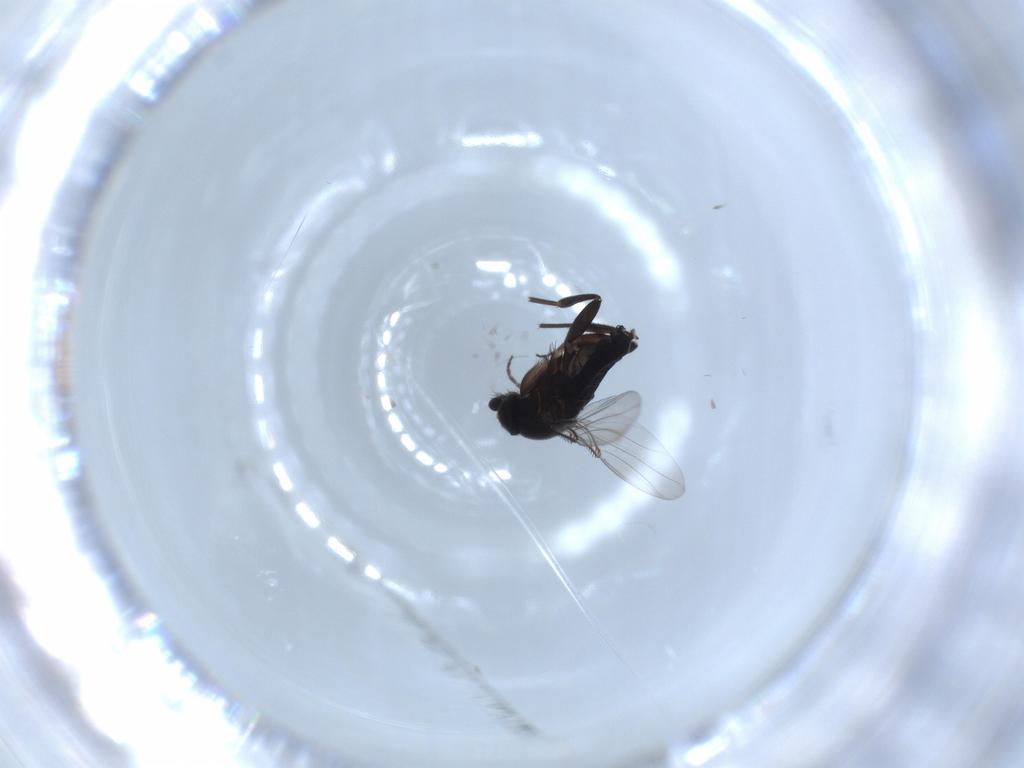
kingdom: Animalia
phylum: Arthropoda
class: Insecta
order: Diptera
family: Phoridae
